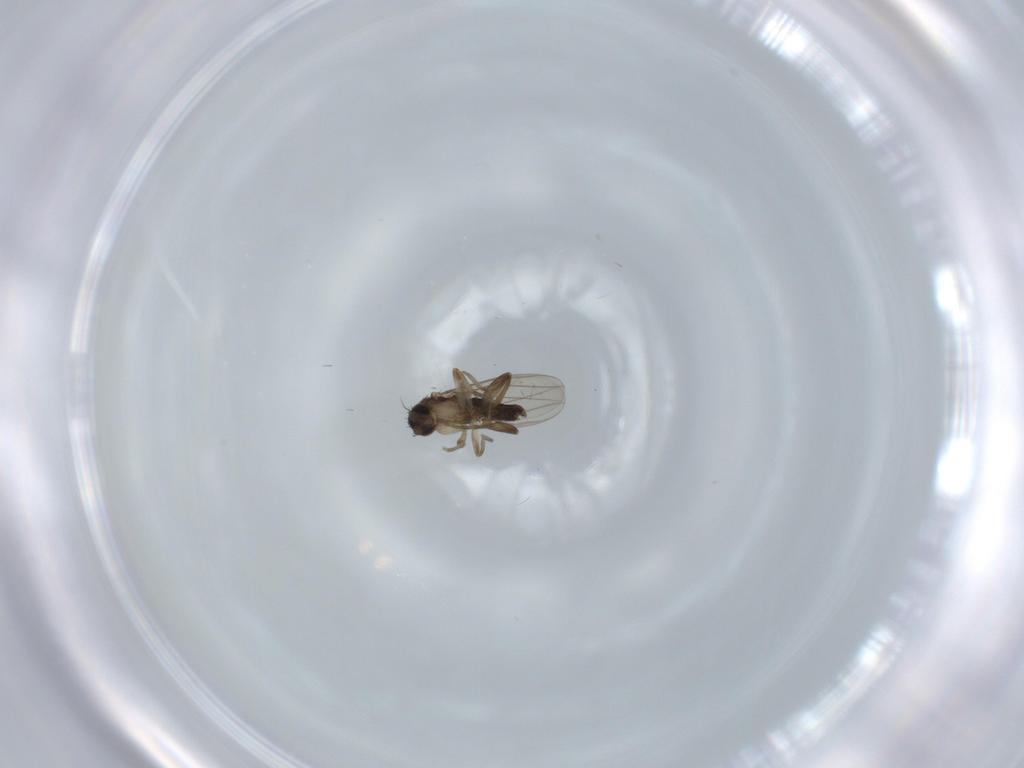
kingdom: Animalia
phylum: Arthropoda
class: Insecta
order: Diptera
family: Phoridae
